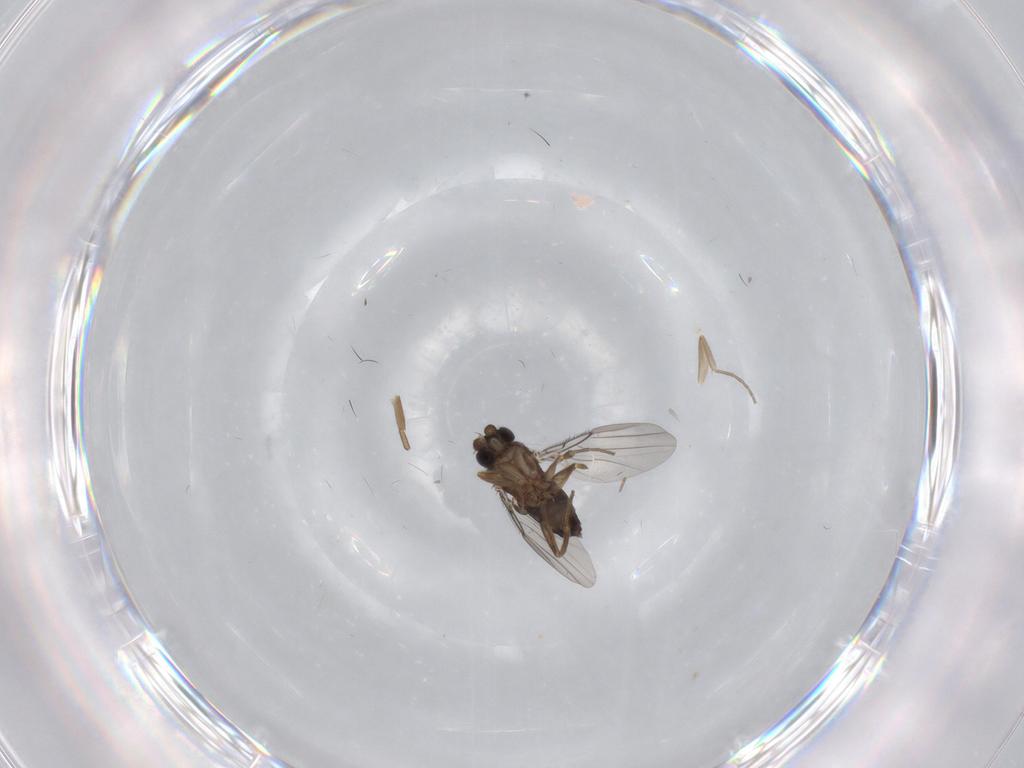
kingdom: Animalia
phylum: Arthropoda
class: Insecta
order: Diptera
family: Phoridae
